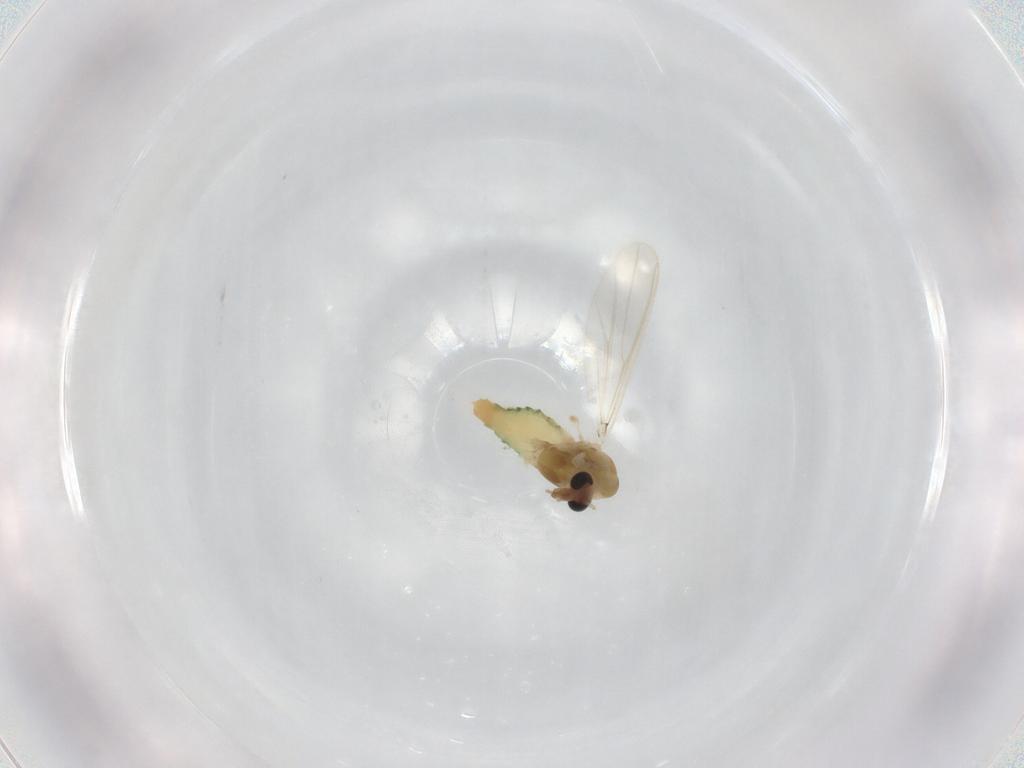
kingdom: Animalia
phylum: Arthropoda
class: Insecta
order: Diptera
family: Chironomidae
